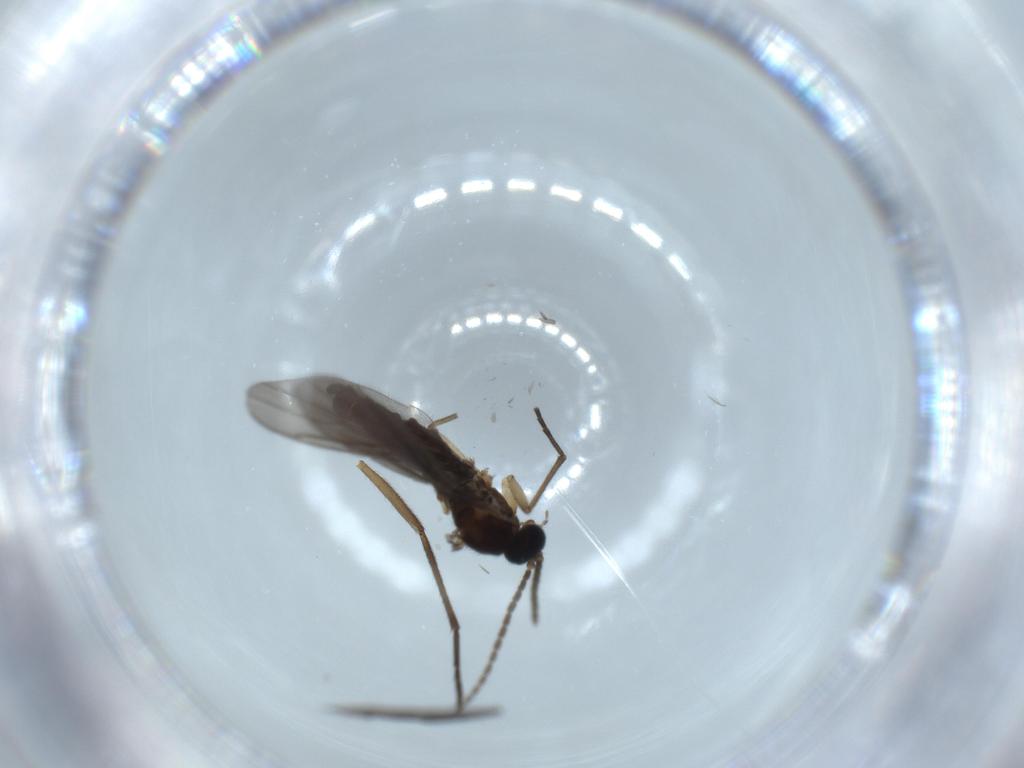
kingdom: Animalia
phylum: Arthropoda
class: Insecta
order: Diptera
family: Sciaridae
